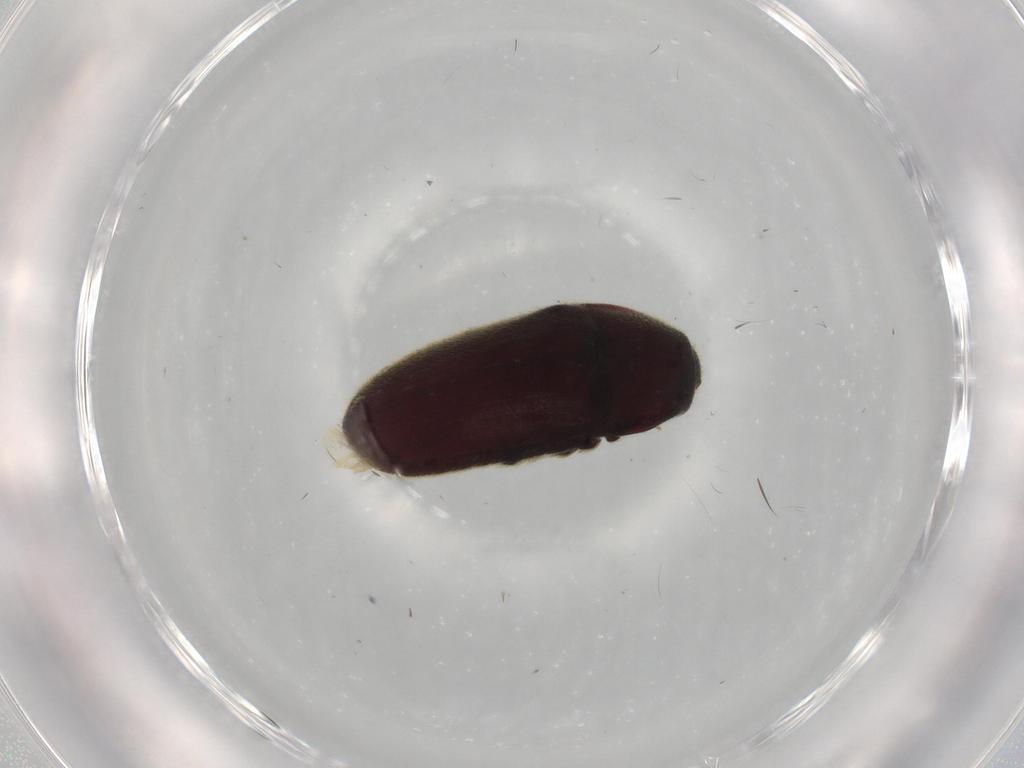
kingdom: Animalia
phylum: Arthropoda
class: Insecta
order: Coleoptera
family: Throscidae
